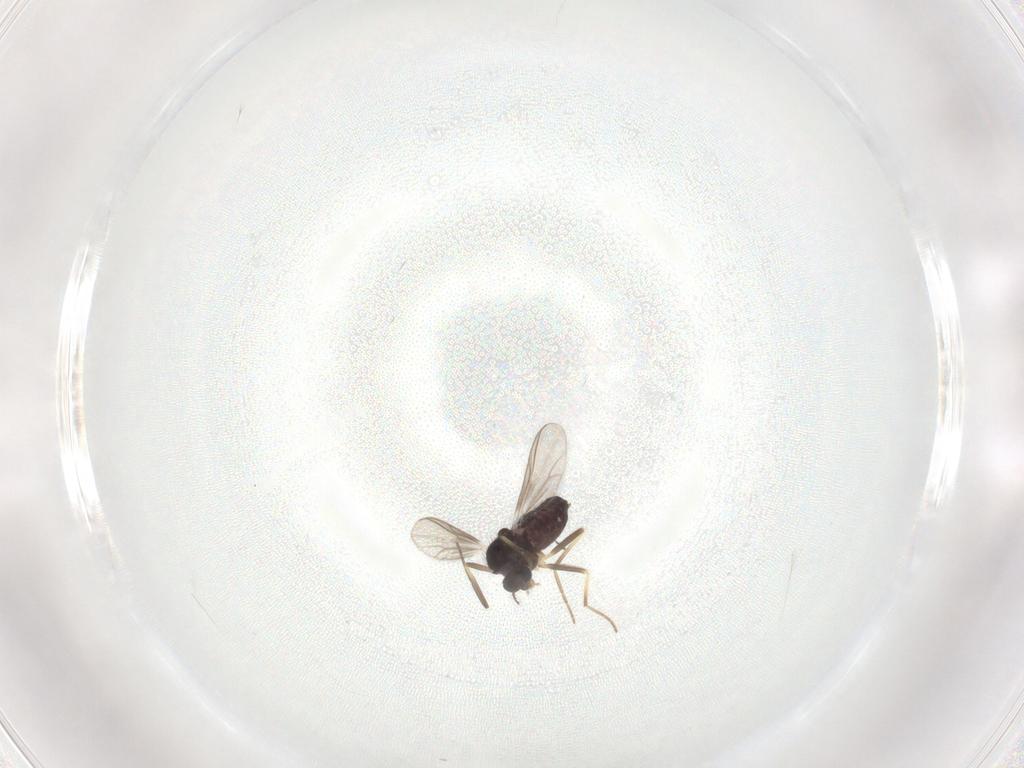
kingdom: Animalia
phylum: Arthropoda
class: Insecta
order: Diptera
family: Chironomidae
